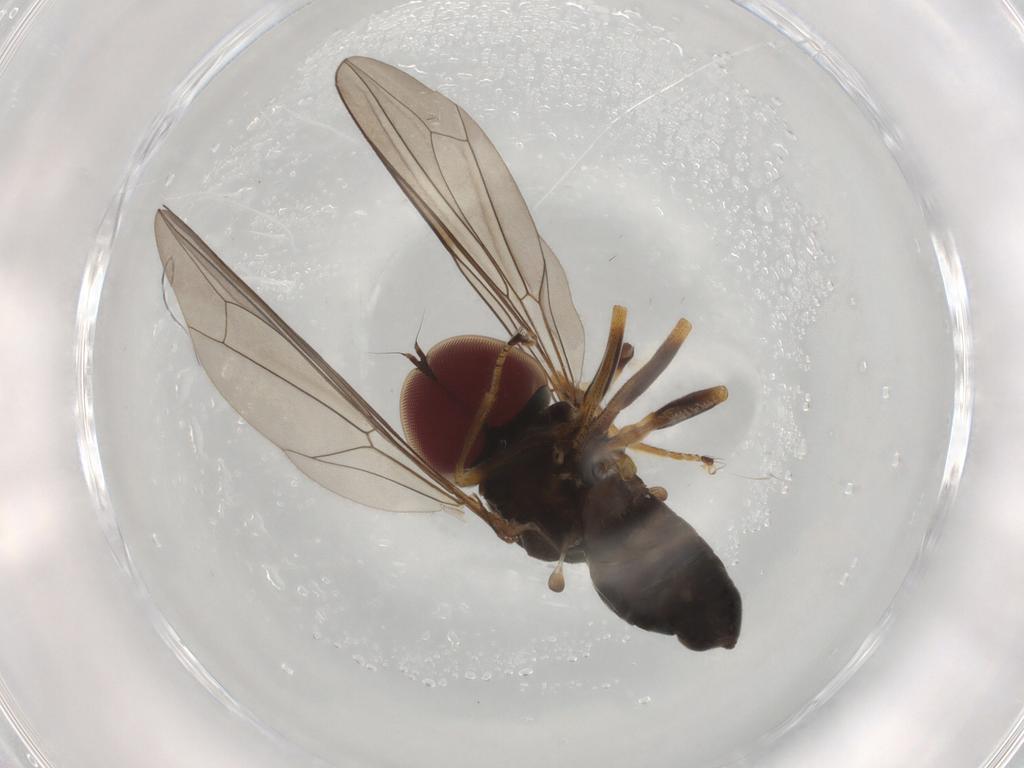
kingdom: Animalia
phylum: Arthropoda
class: Insecta
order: Diptera
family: Pipunculidae
